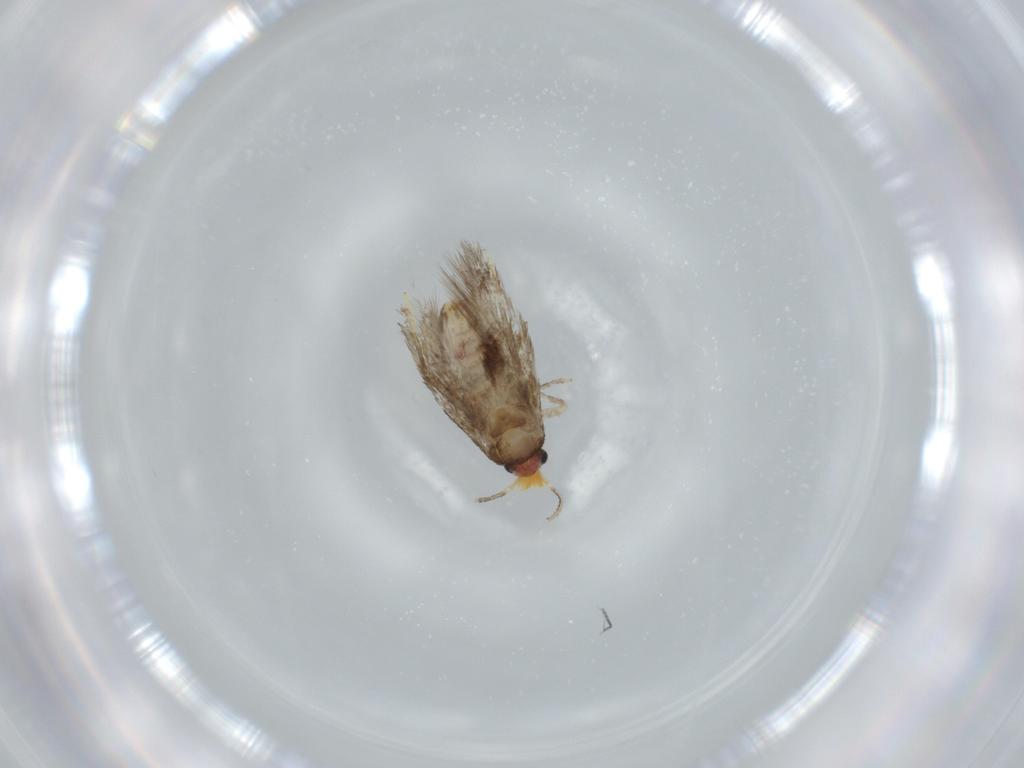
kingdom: Animalia
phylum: Arthropoda
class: Insecta
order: Lepidoptera
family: Nepticulidae
